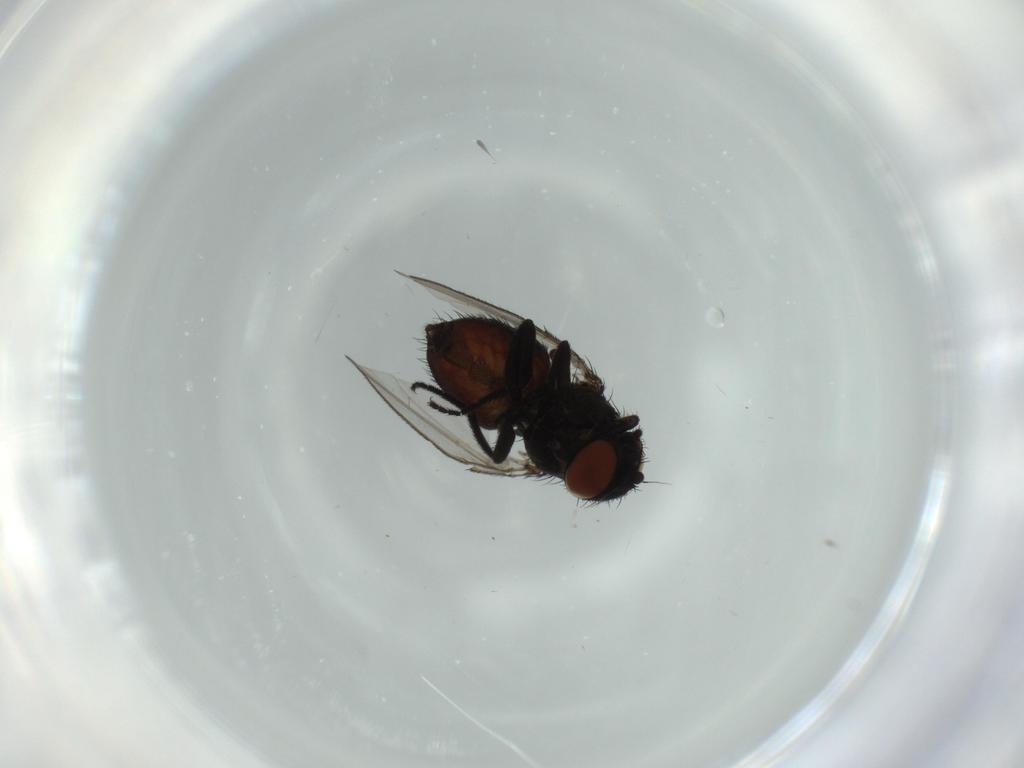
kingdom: Animalia
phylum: Arthropoda
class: Insecta
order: Diptera
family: Milichiidae
